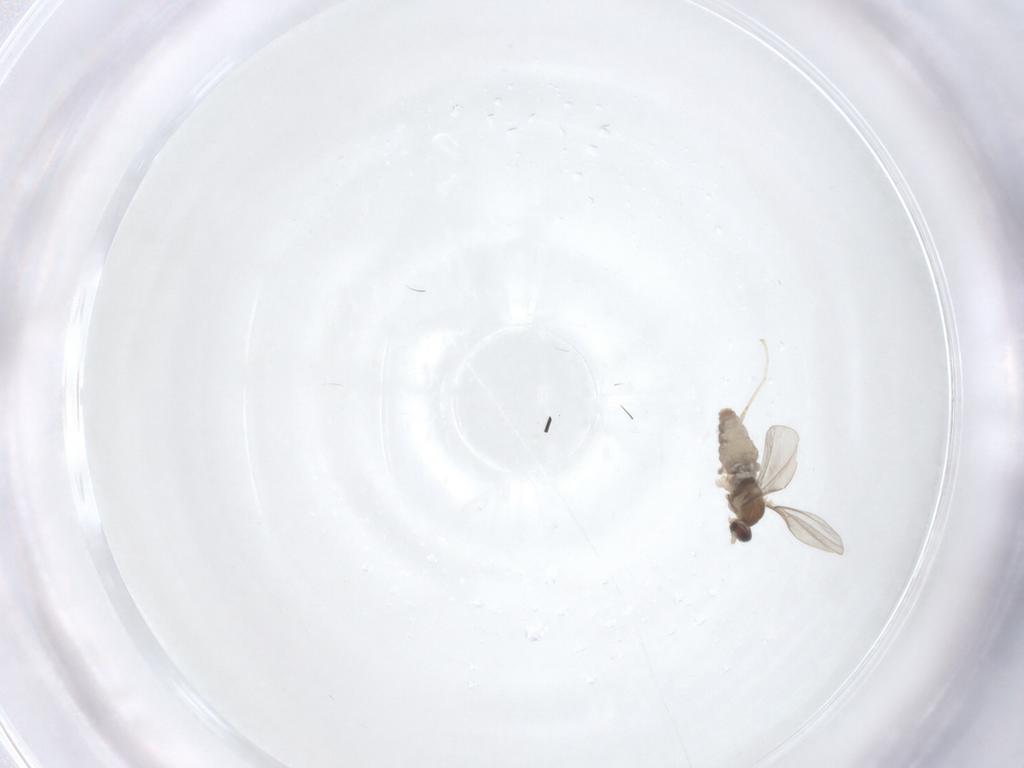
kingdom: Animalia
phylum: Arthropoda
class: Insecta
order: Diptera
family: Cecidomyiidae
